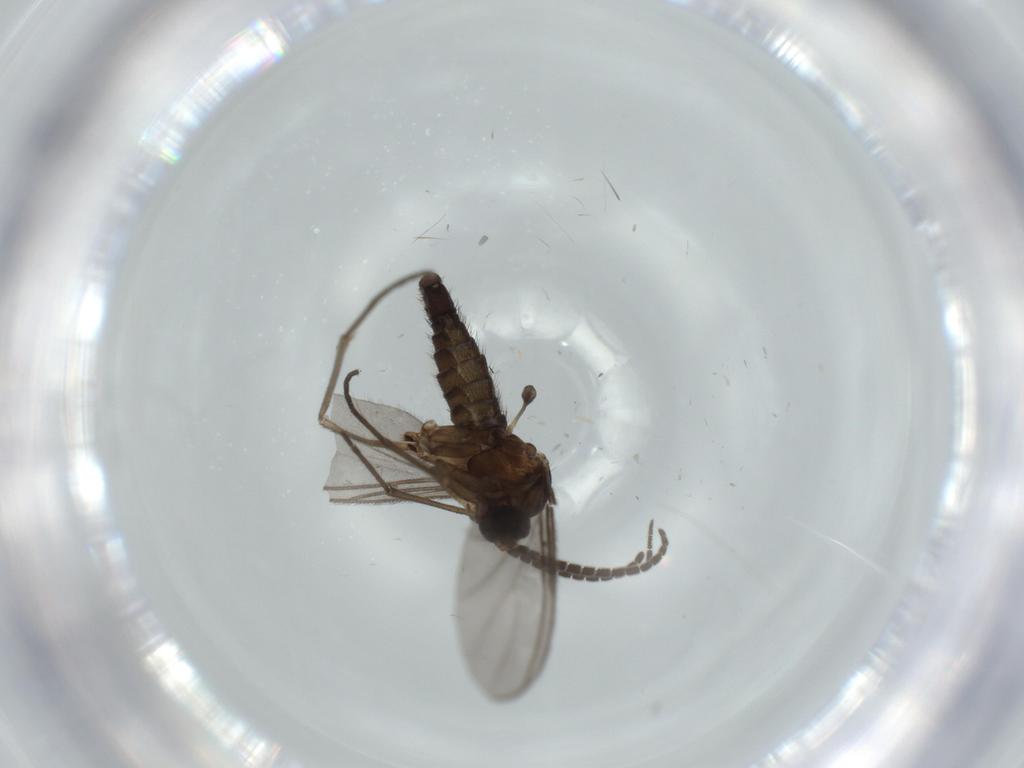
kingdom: Animalia
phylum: Arthropoda
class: Insecta
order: Diptera
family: Sciaridae
